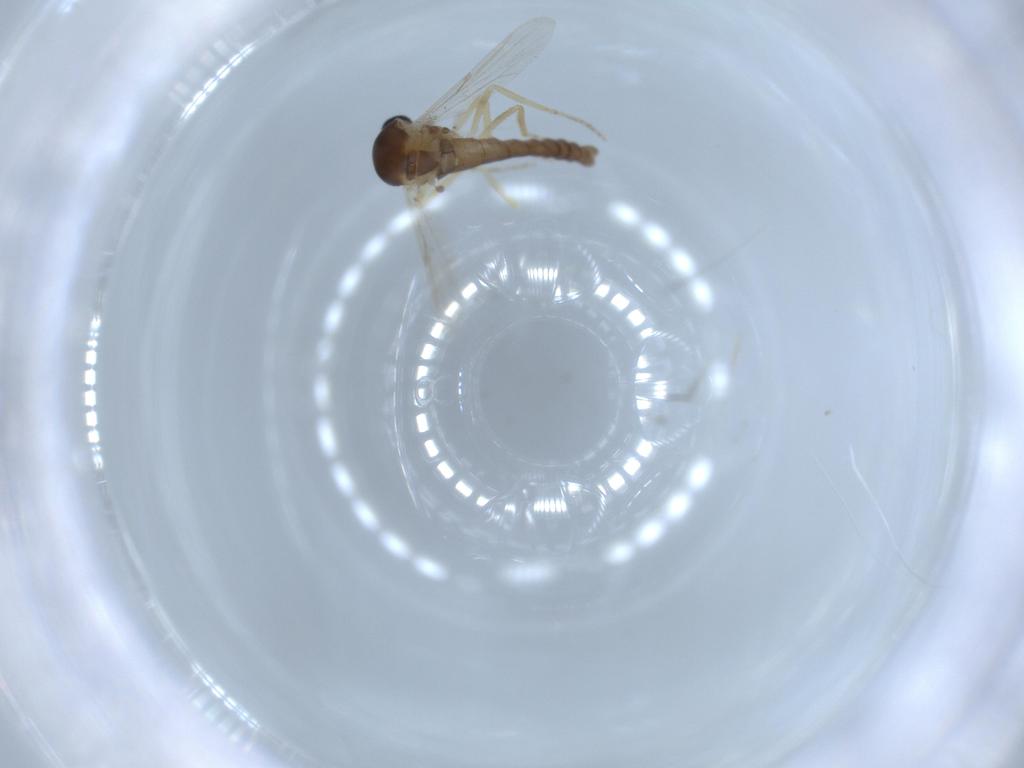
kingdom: Animalia
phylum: Arthropoda
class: Insecta
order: Diptera
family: Ceratopogonidae
